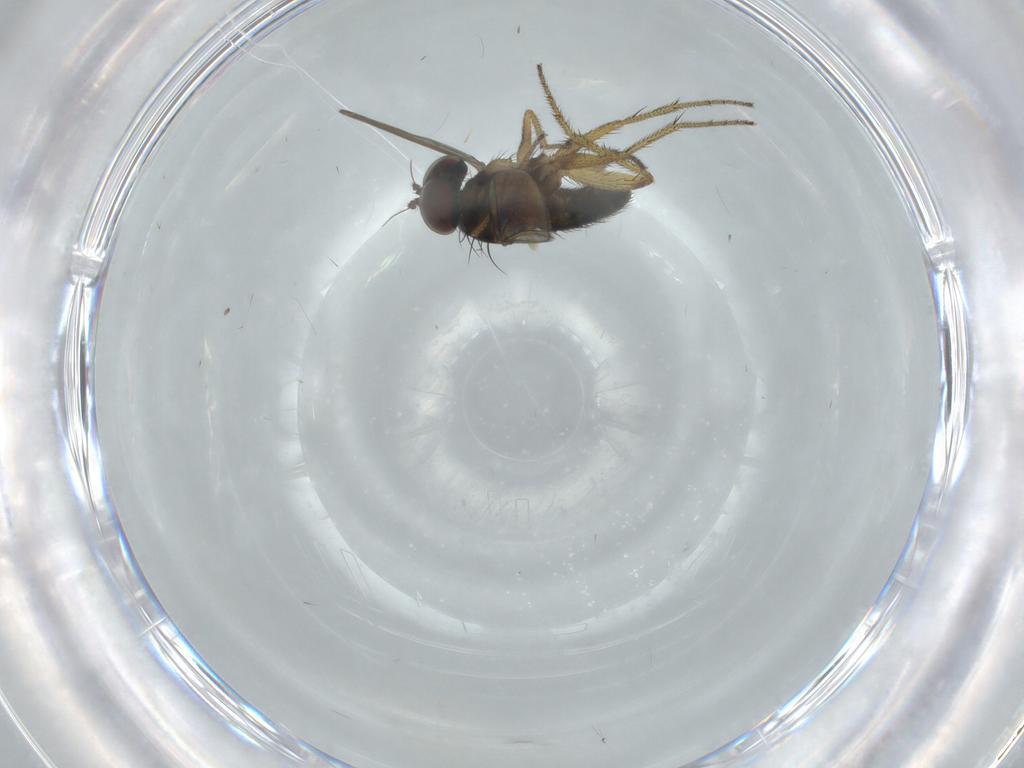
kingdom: Animalia
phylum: Arthropoda
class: Insecta
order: Diptera
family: Dolichopodidae
